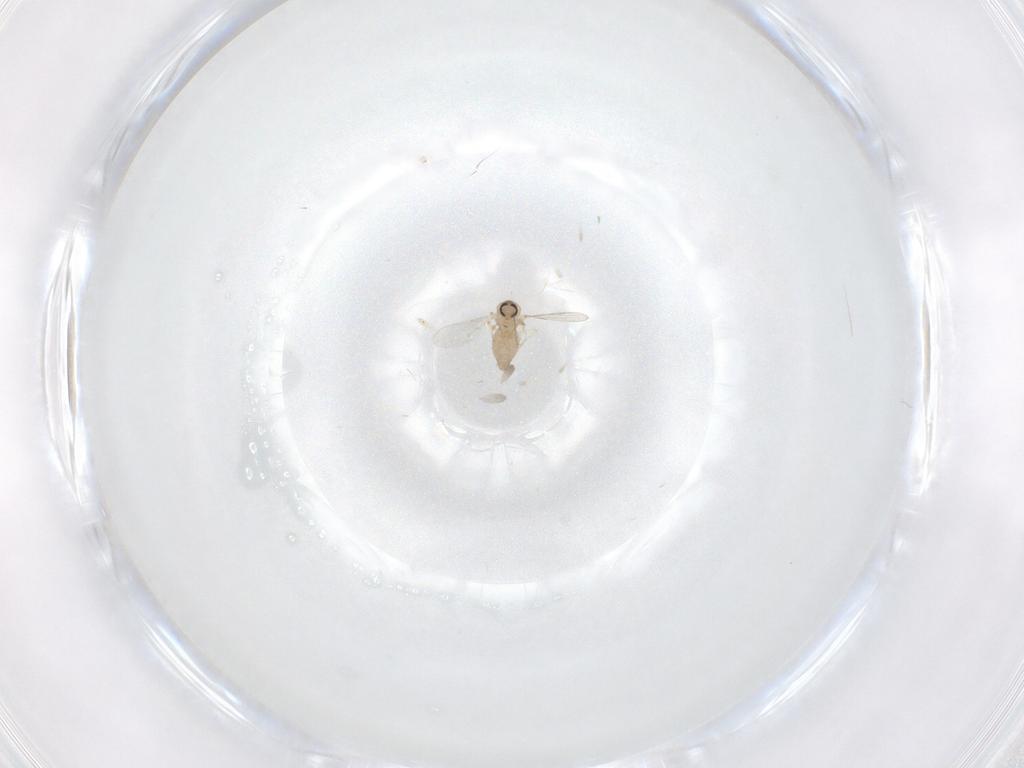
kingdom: Animalia
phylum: Arthropoda
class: Insecta
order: Diptera
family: Ceratopogonidae
